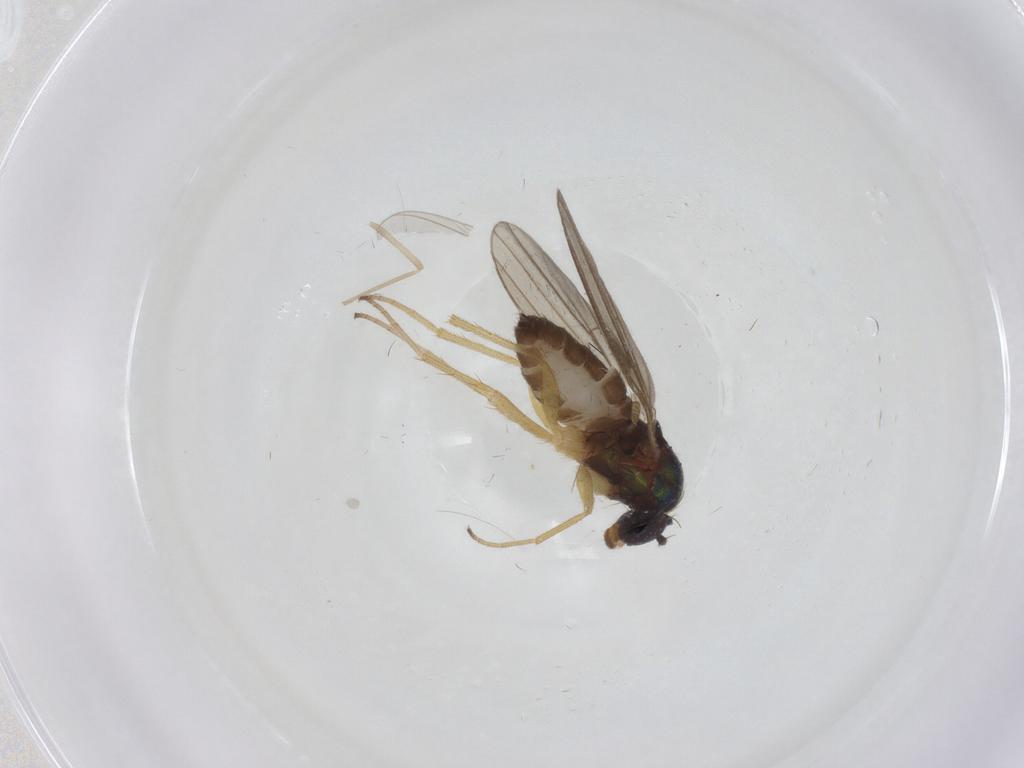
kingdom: Animalia
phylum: Arthropoda
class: Insecta
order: Diptera
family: Dolichopodidae
